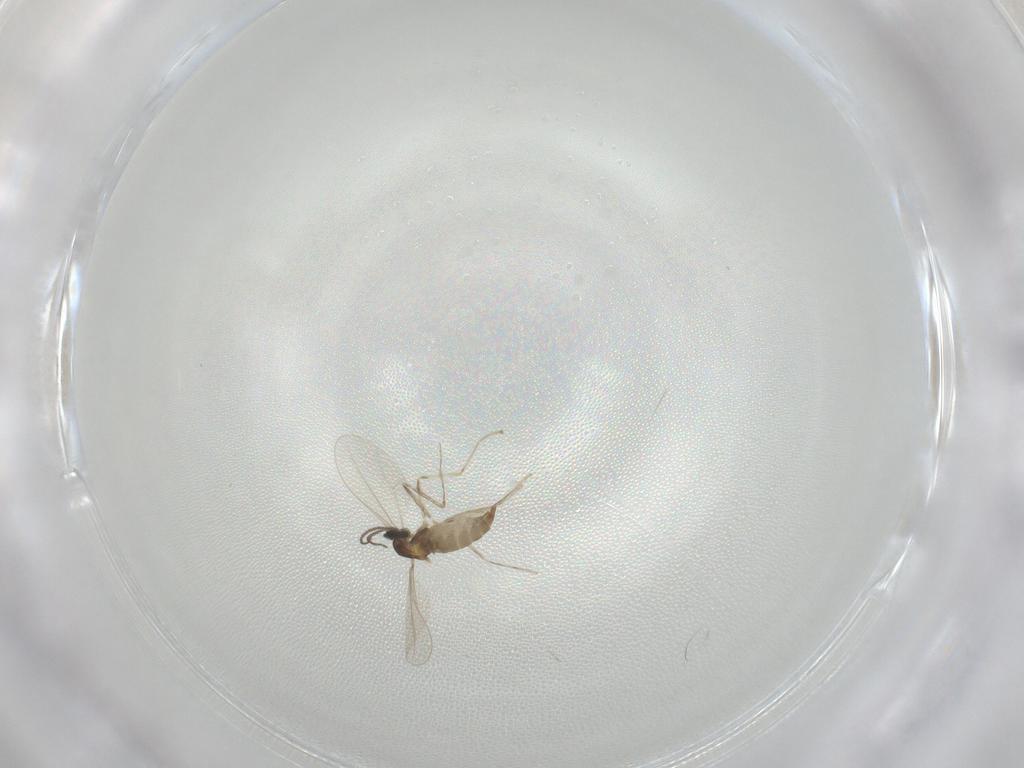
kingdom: Animalia
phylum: Arthropoda
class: Insecta
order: Diptera
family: Cecidomyiidae
